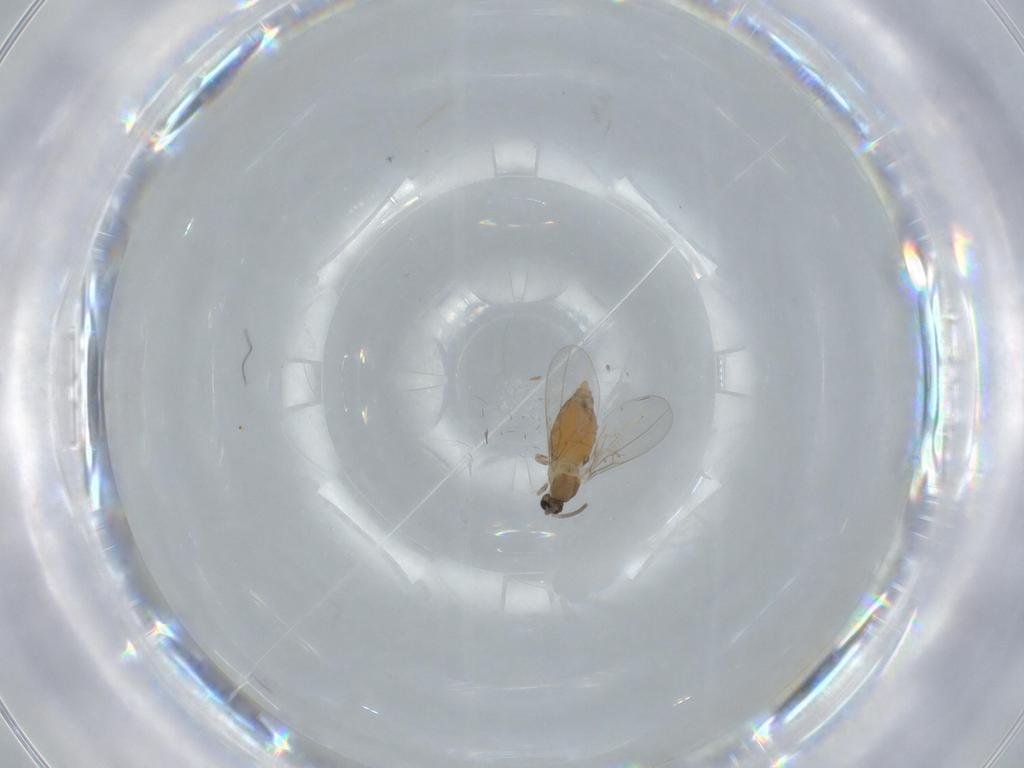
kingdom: Animalia
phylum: Arthropoda
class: Insecta
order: Diptera
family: Cecidomyiidae
